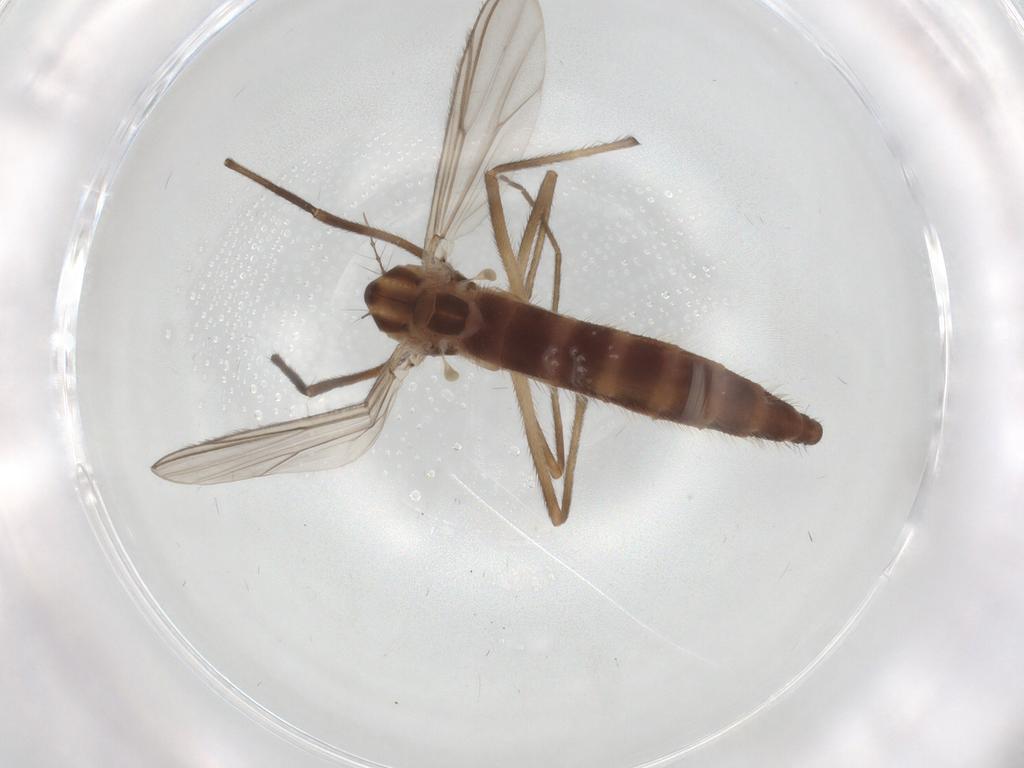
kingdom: Animalia
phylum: Arthropoda
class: Insecta
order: Diptera
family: Chironomidae
